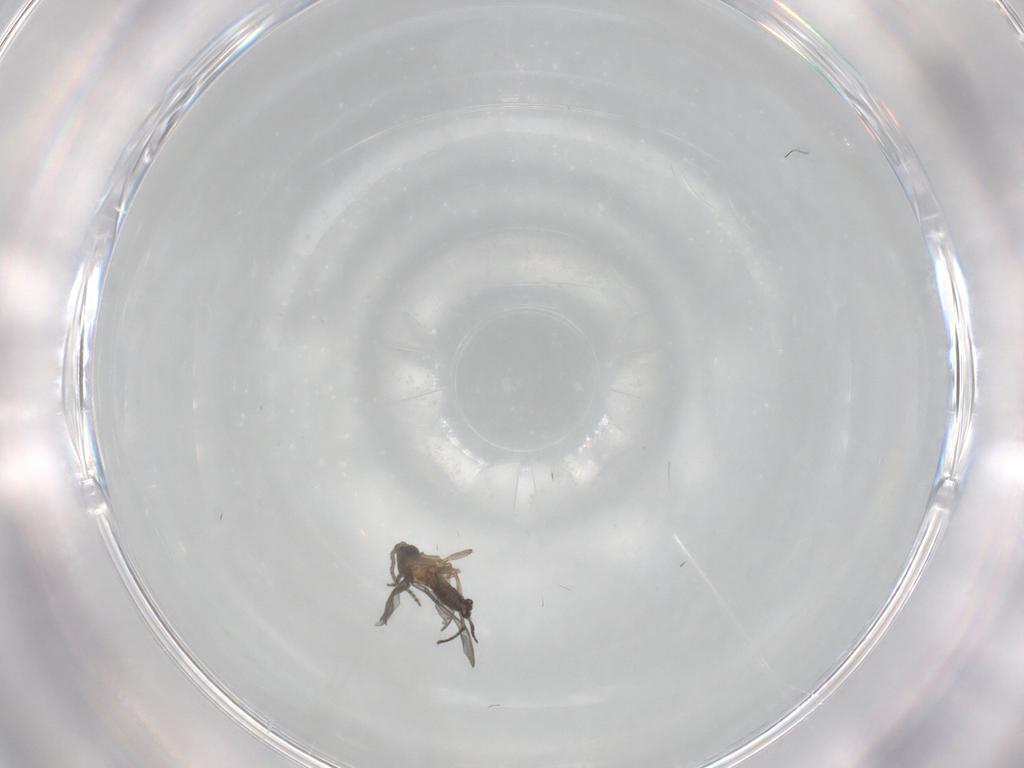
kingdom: Animalia
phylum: Arthropoda
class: Insecta
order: Diptera
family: Sciaridae
